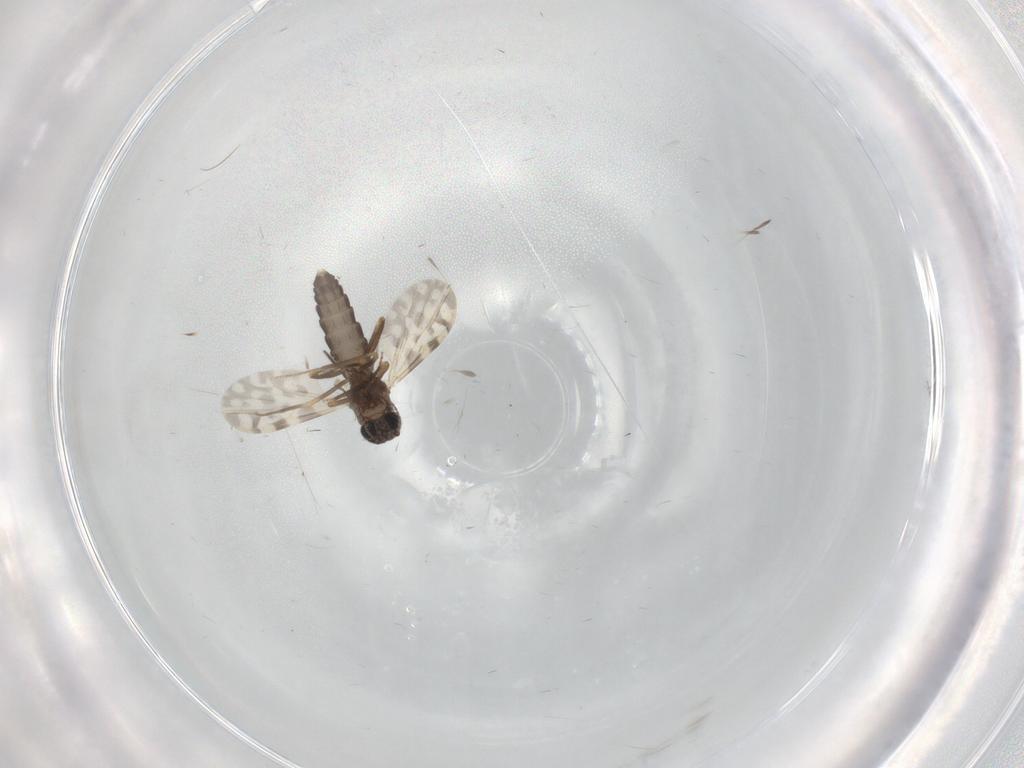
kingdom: Animalia
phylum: Arthropoda
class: Insecta
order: Diptera
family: Ceratopogonidae
